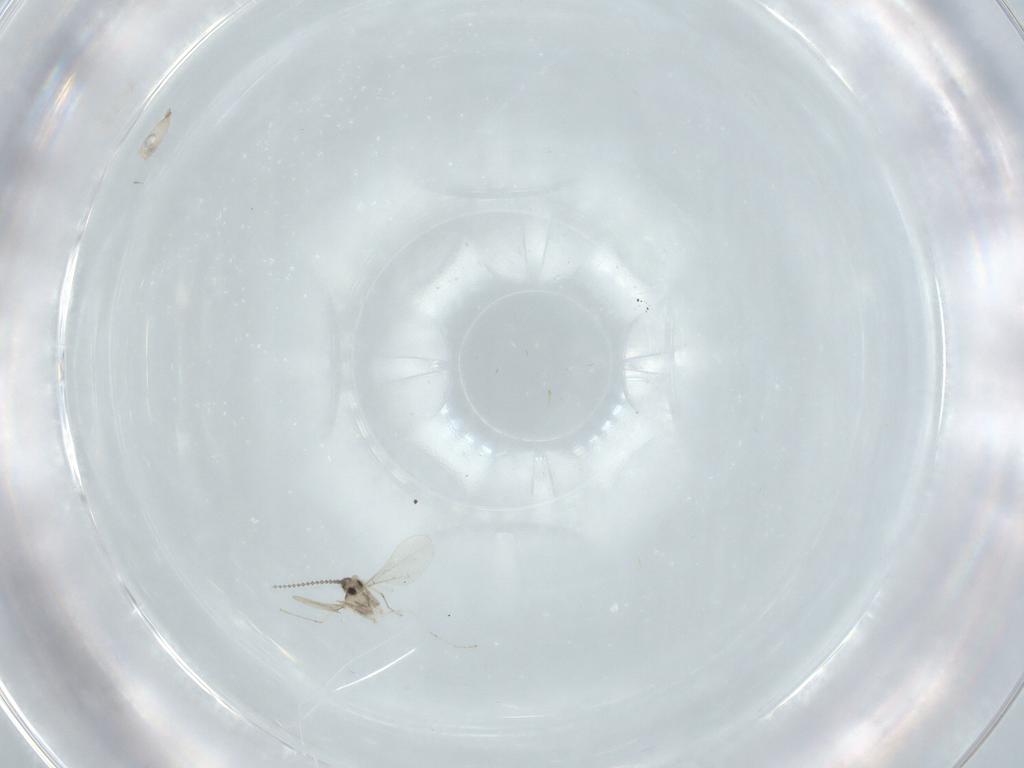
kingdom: Animalia
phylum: Arthropoda
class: Insecta
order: Diptera
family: Cecidomyiidae
